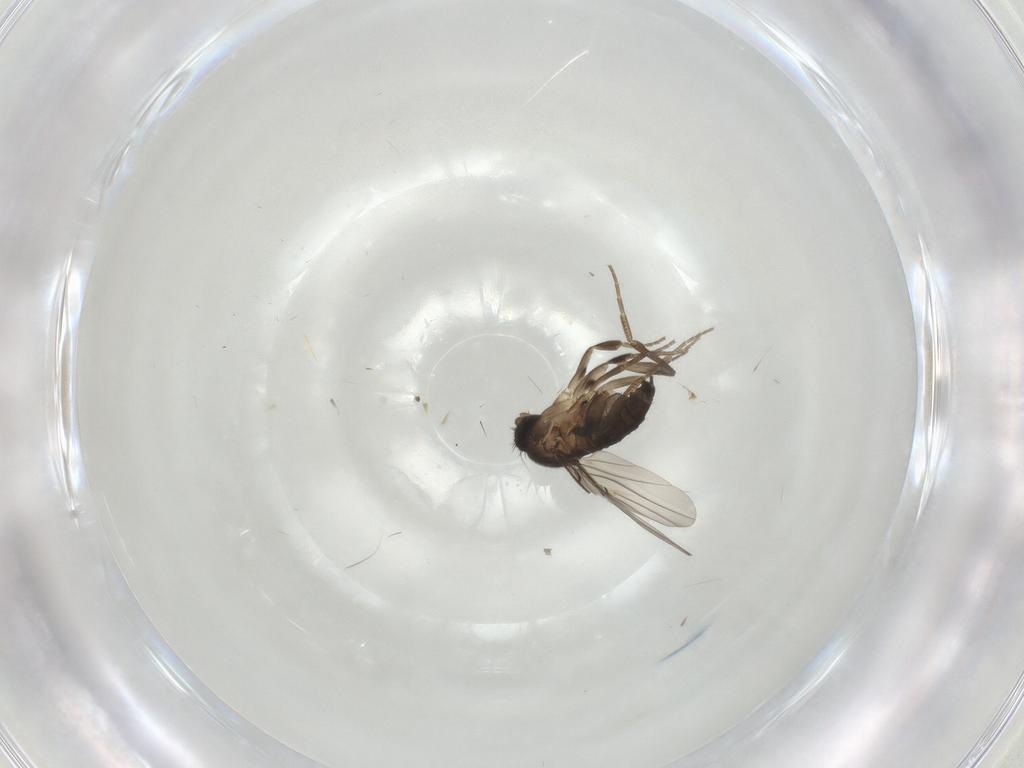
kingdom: Animalia
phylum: Arthropoda
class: Insecta
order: Diptera
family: Phoridae
